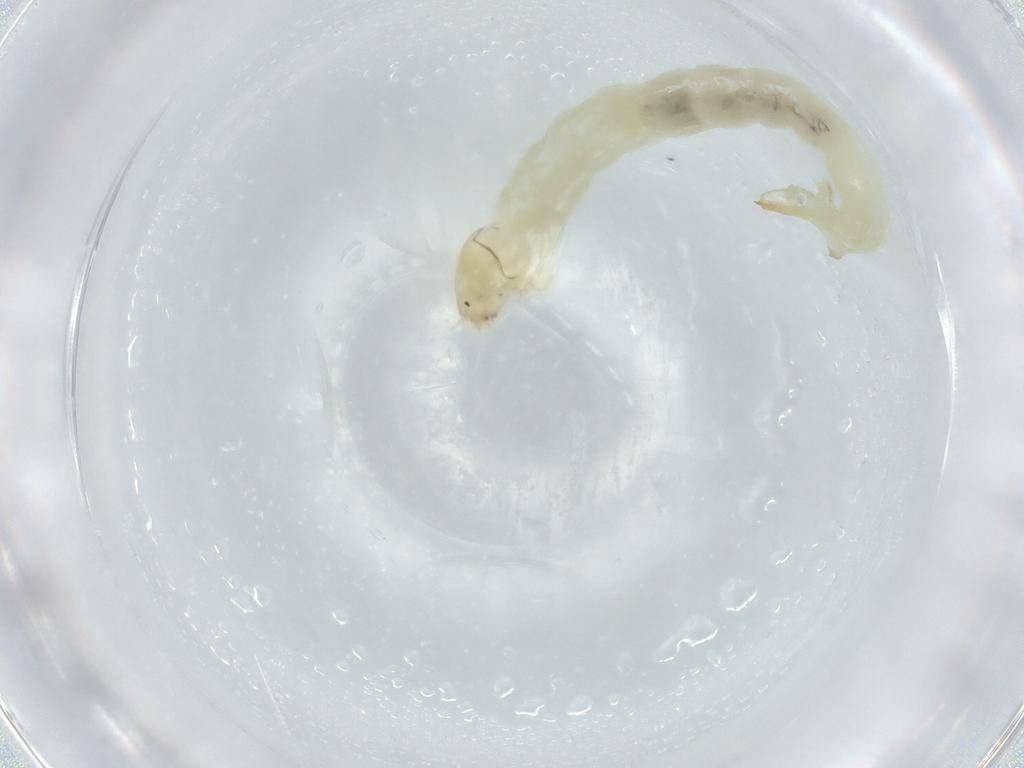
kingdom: Animalia
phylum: Arthropoda
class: Insecta
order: Diptera
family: Chironomidae
